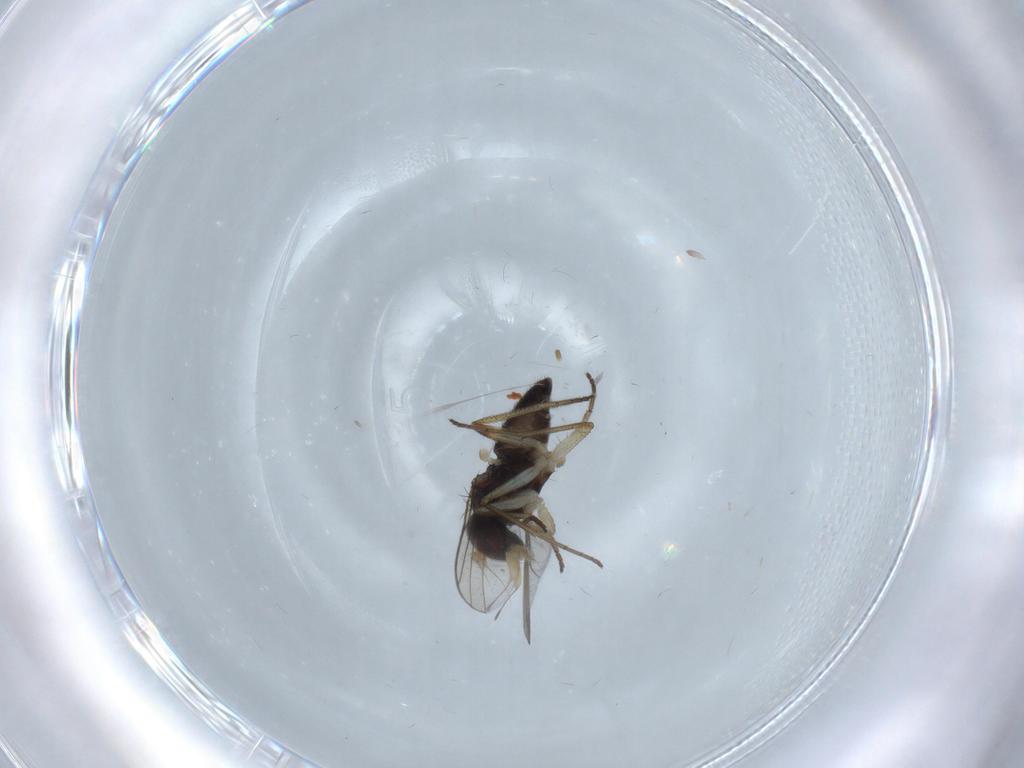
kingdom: Animalia
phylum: Arthropoda
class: Insecta
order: Diptera
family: Dolichopodidae
